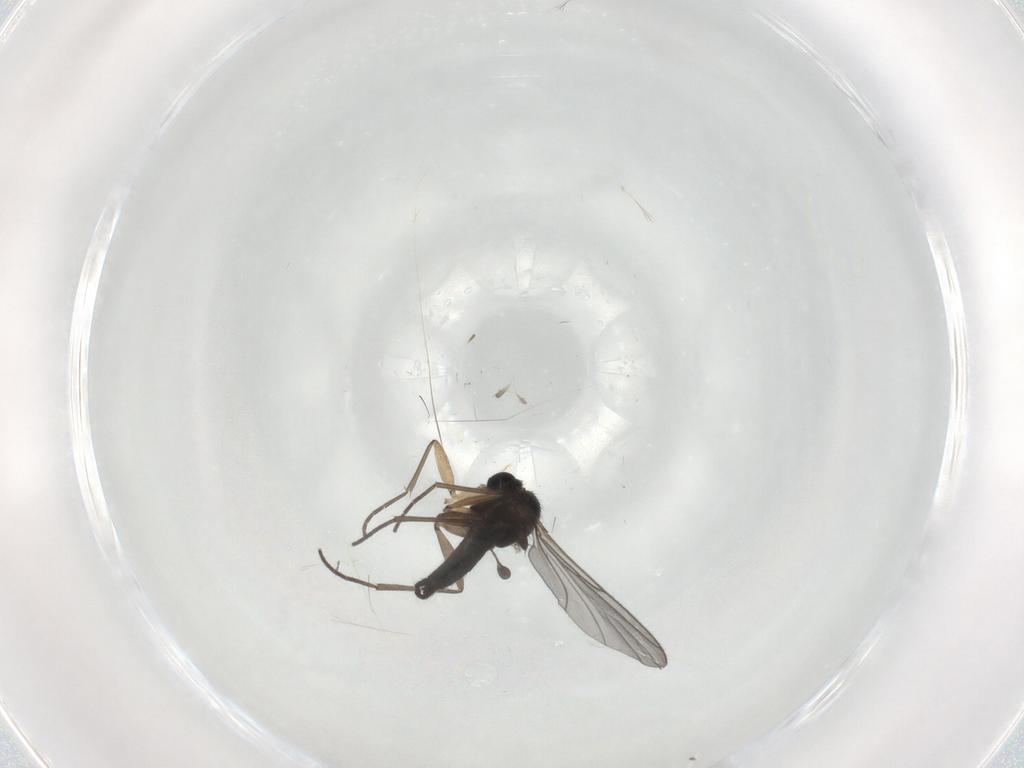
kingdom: Animalia
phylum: Arthropoda
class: Insecta
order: Diptera
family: Sciaridae
